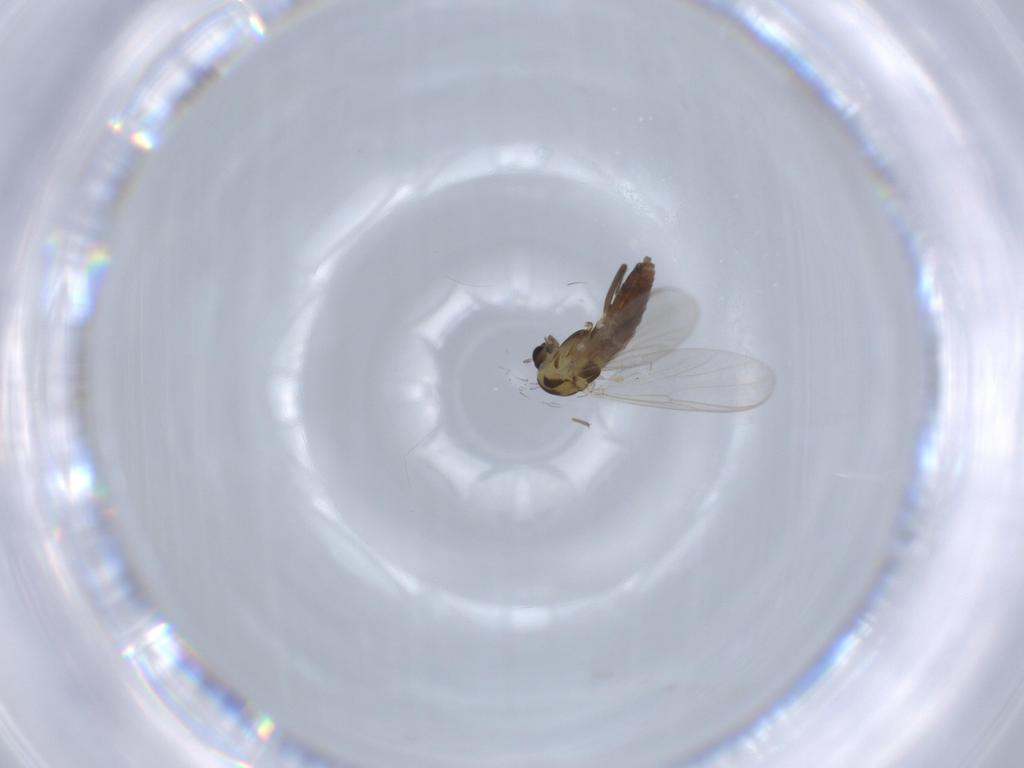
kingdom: Animalia
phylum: Arthropoda
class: Insecta
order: Diptera
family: Chironomidae
